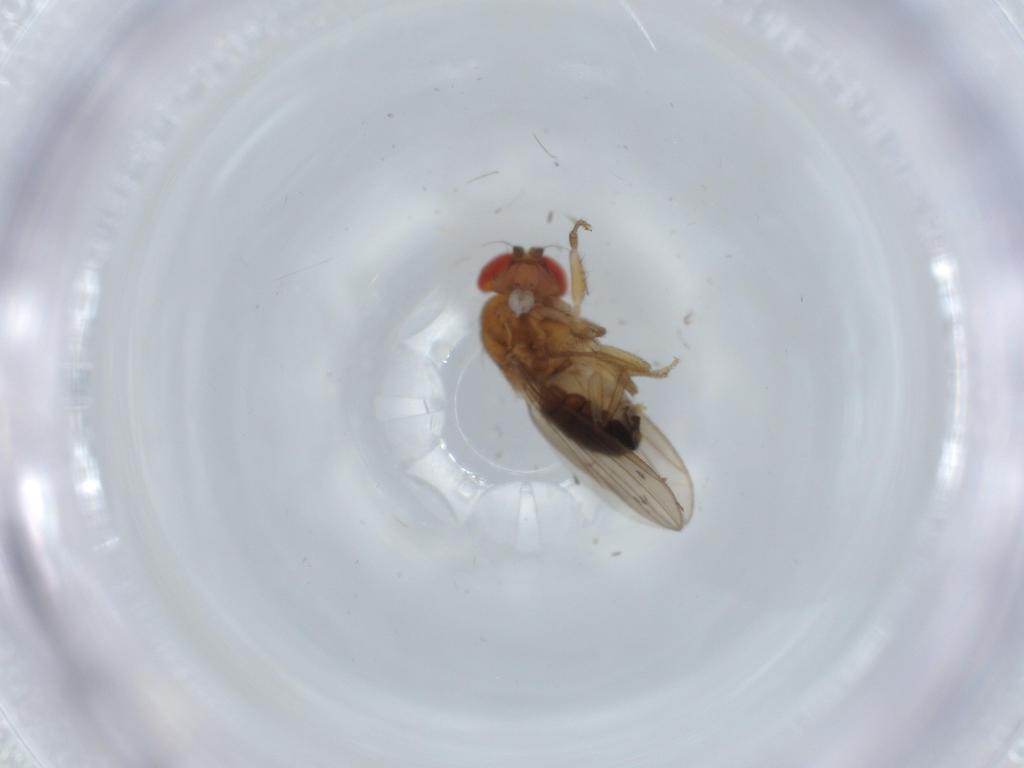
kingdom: Animalia
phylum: Arthropoda
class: Insecta
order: Diptera
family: Drosophilidae
